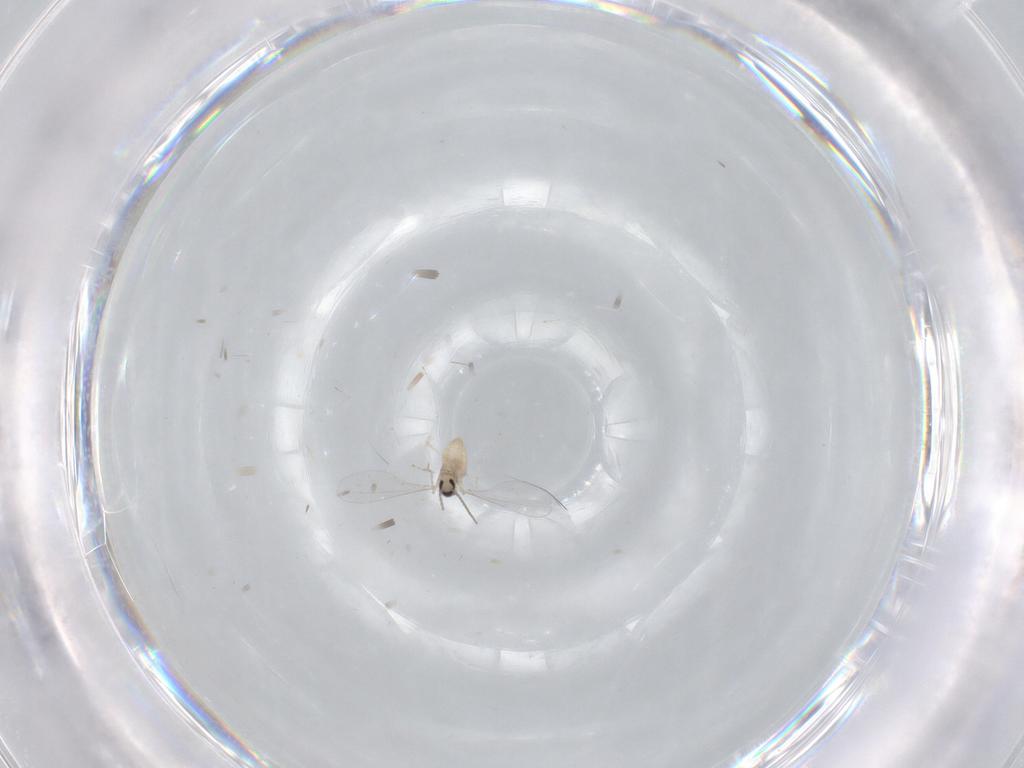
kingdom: Animalia
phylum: Arthropoda
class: Insecta
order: Diptera
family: Cecidomyiidae
